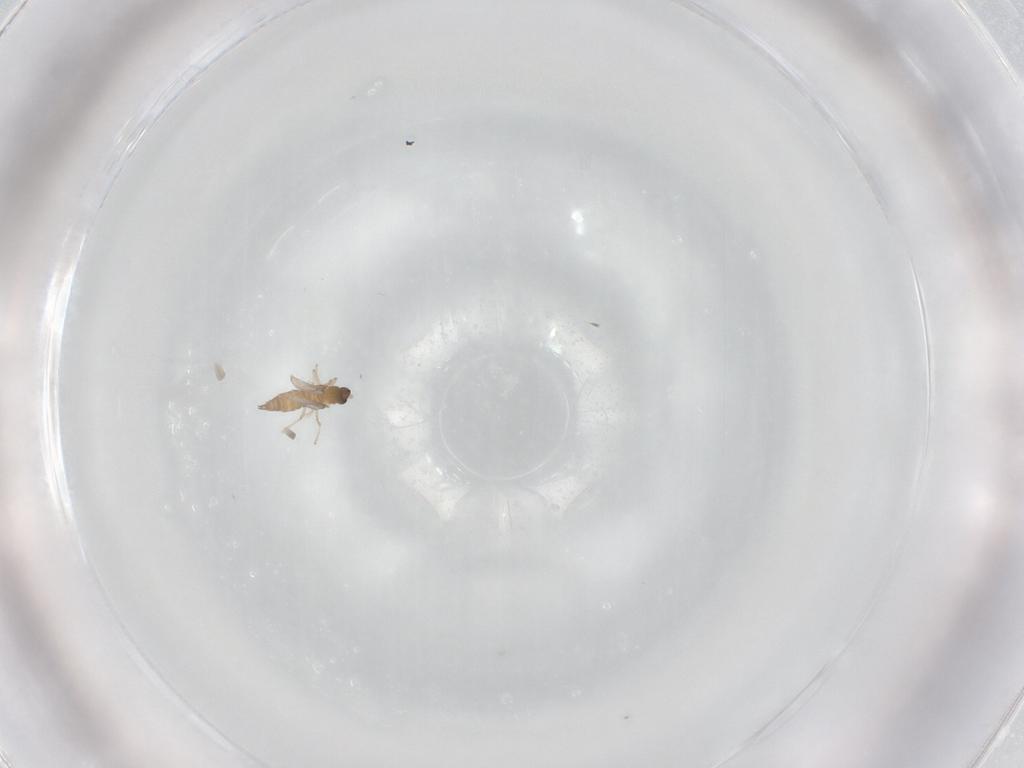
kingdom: Animalia
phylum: Arthropoda
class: Insecta
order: Diptera
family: Cecidomyiidae
